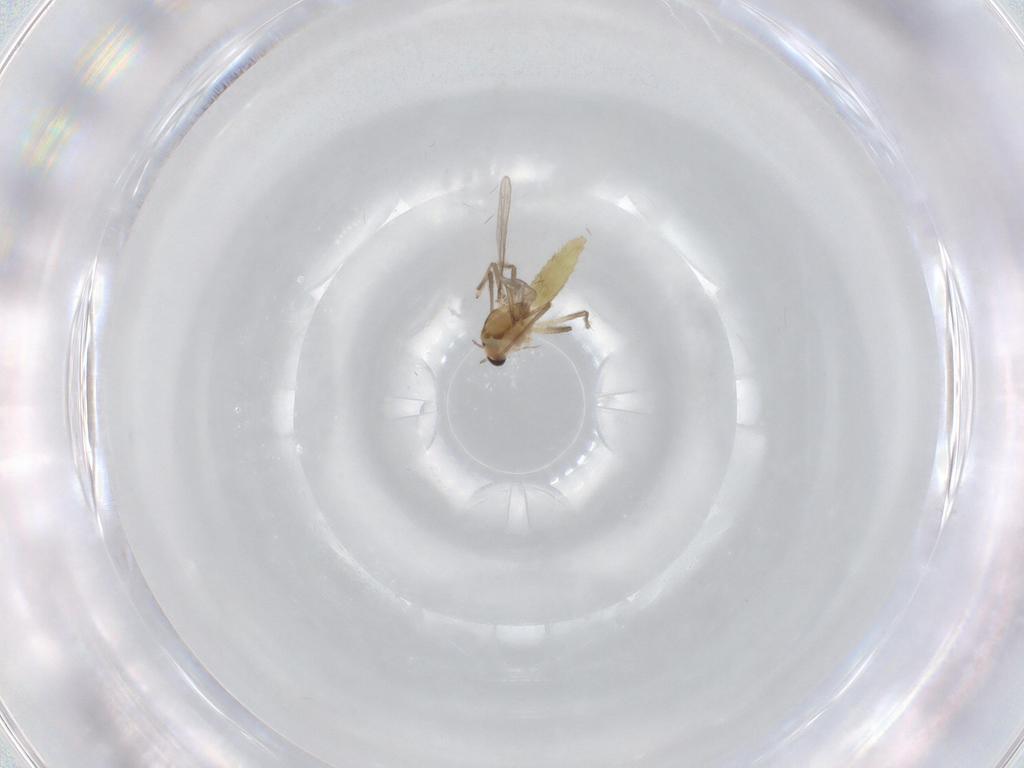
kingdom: Animalia
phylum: Arthropoda
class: Insecta
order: Diptera
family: Chironomidae
